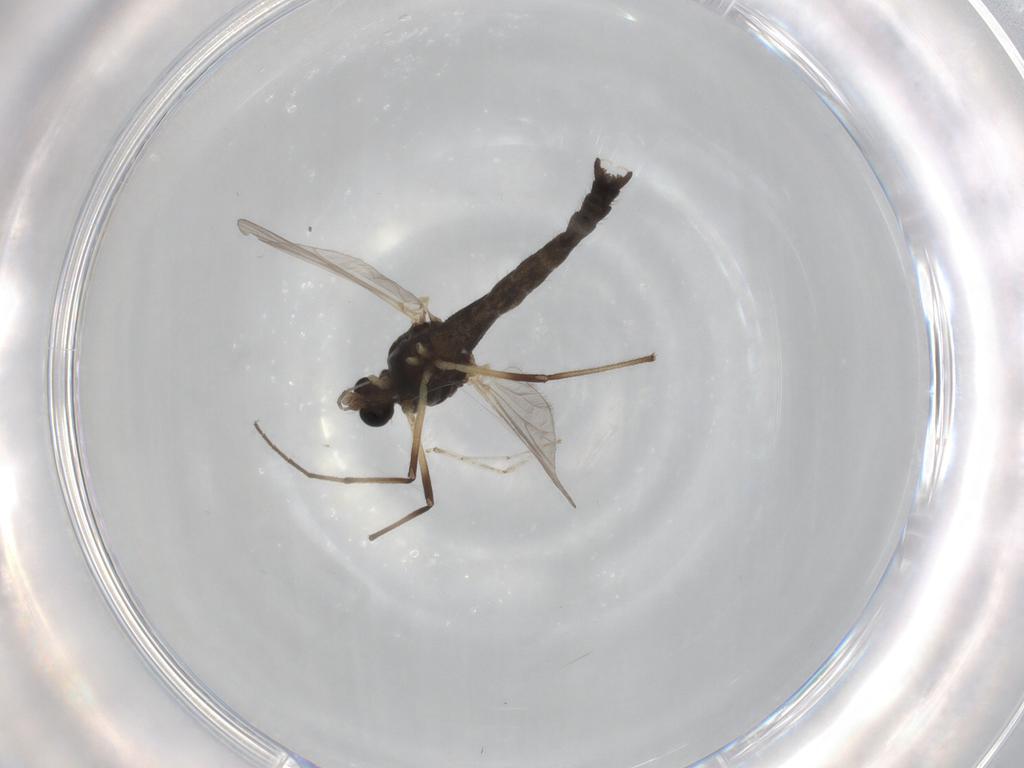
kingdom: Animalia
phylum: Arthropoda
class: Insecta
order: Diptera
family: Chironomidae
